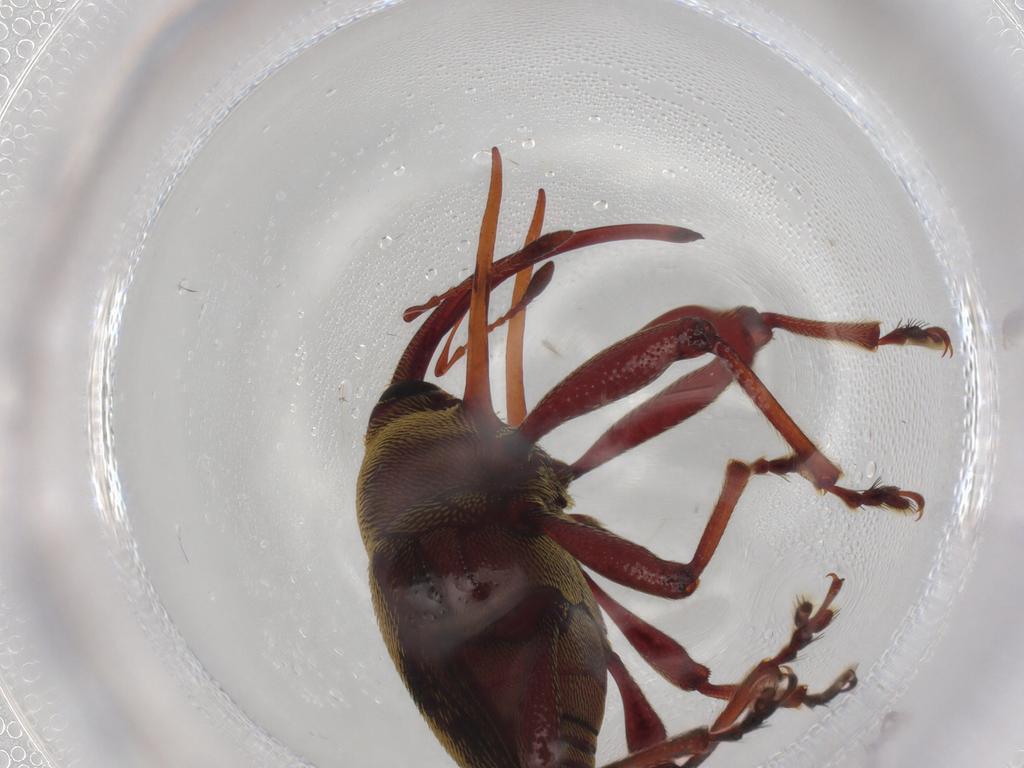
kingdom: Animalia
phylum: Arthropoda
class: Insecta
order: Coleoptera
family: Curculionidae
